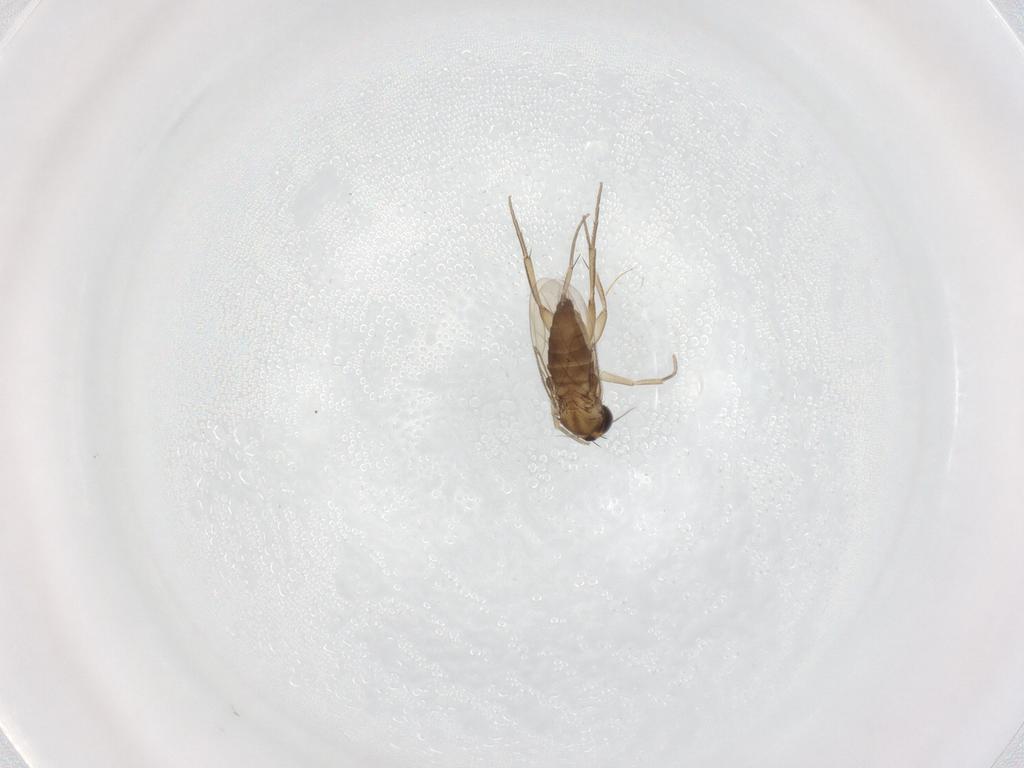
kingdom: Animalia
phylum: Arthropoda
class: Insecta
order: Diptera
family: Phoridae
